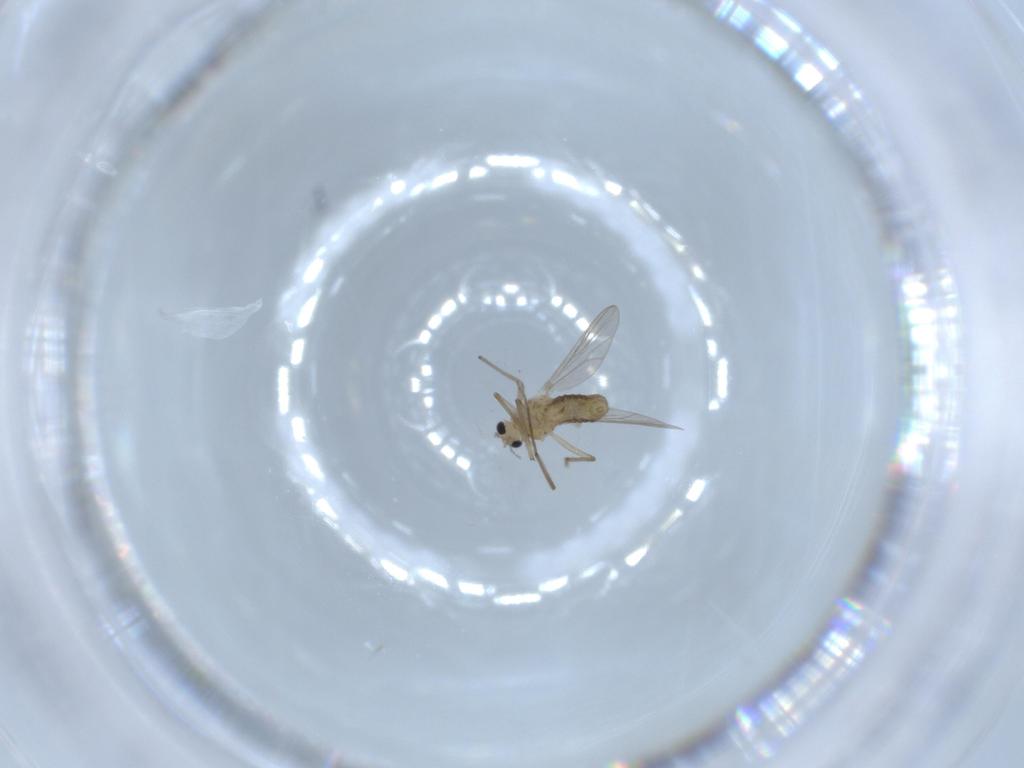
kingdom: Animalia
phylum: Arthropoda
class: Insecta
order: Diptera
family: Chironomidae
